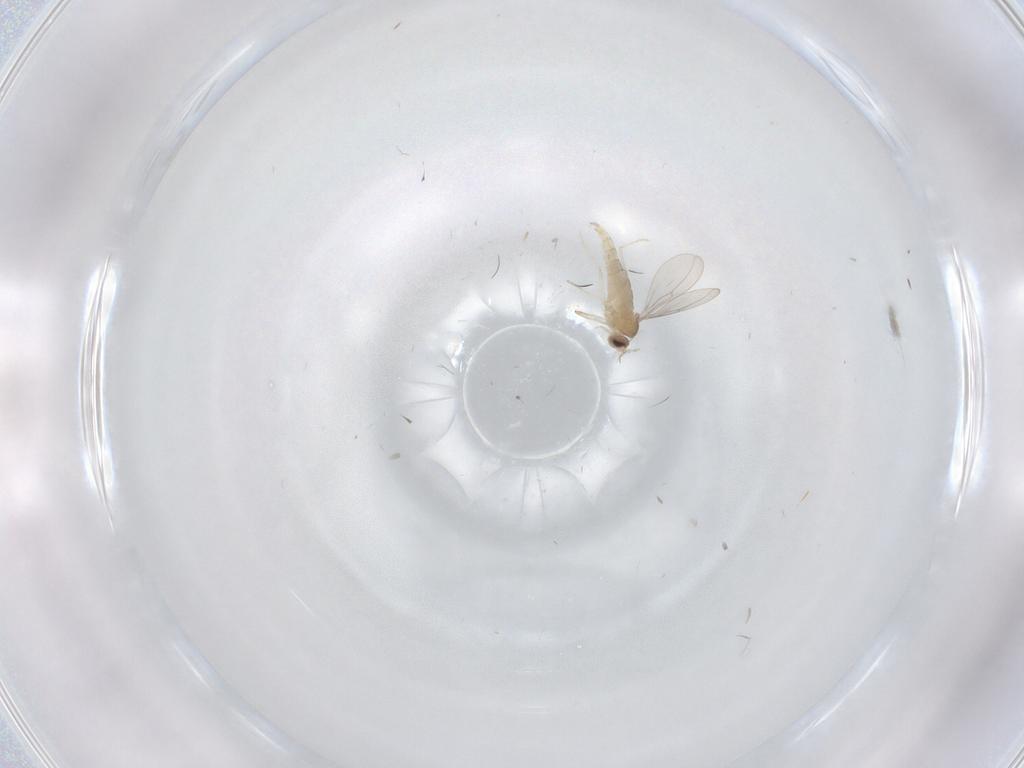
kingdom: Animalia
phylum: Arthropoda
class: Insecta
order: Diptera
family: Cecidomyiidae
